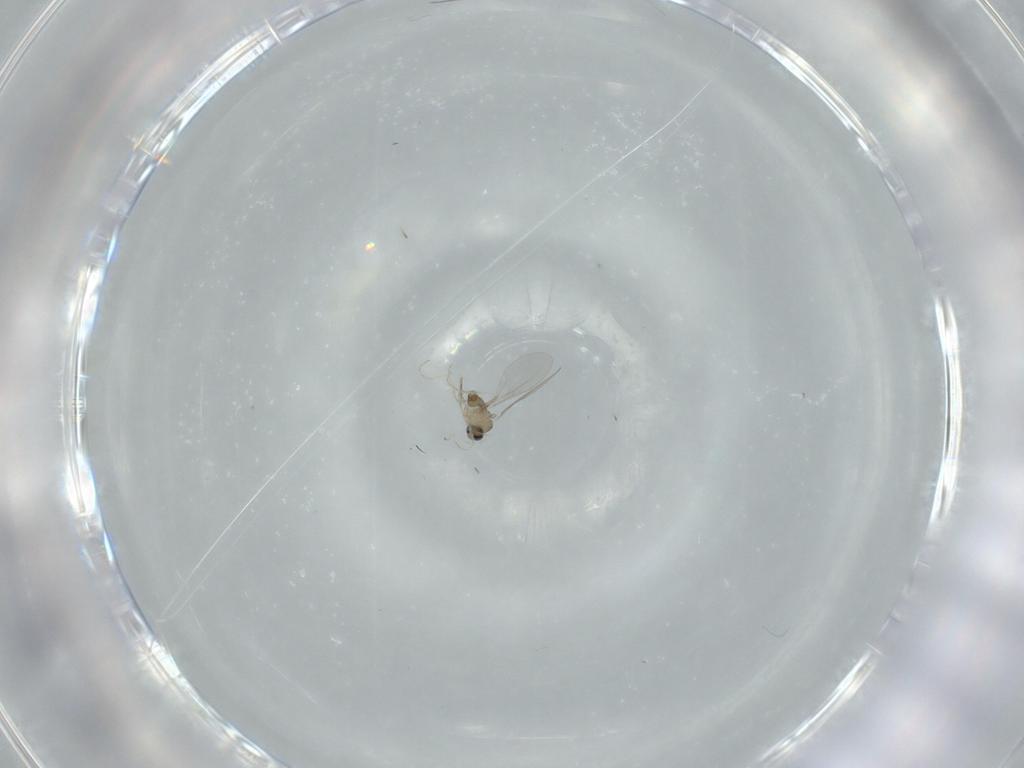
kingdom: Animalia
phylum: Arthropoda
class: Insecta
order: Diptera
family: Cecidomyiidae
